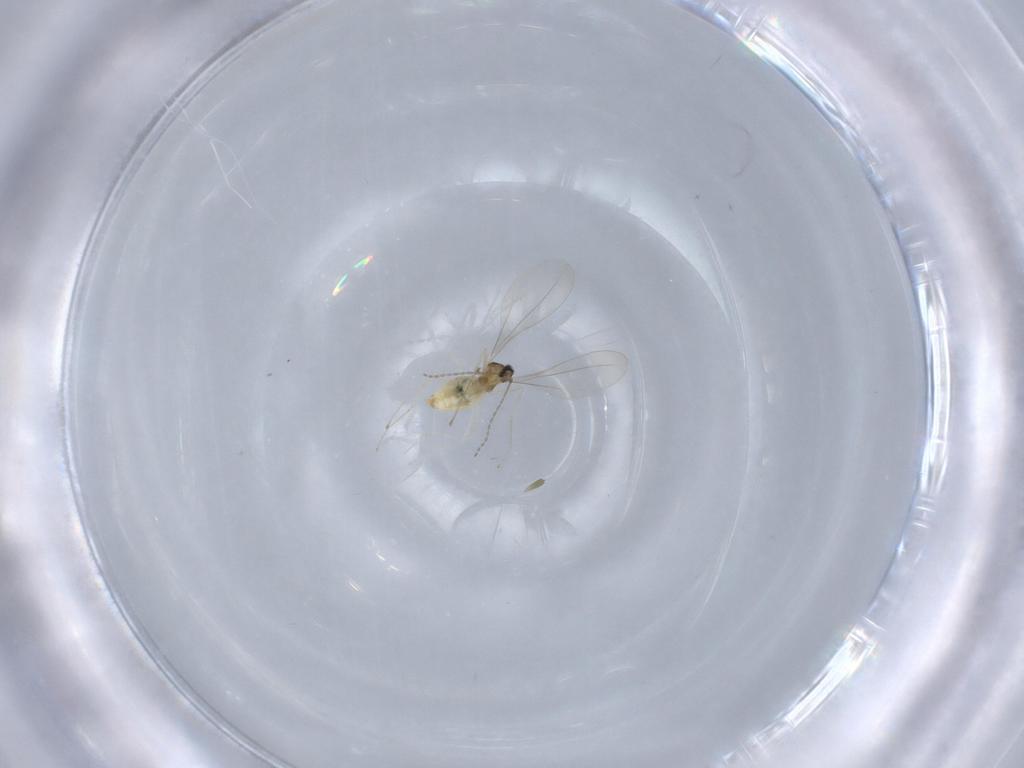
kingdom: Animalia
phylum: Arthropoda
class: Insecta
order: Diptera
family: Cecidomyiidae
